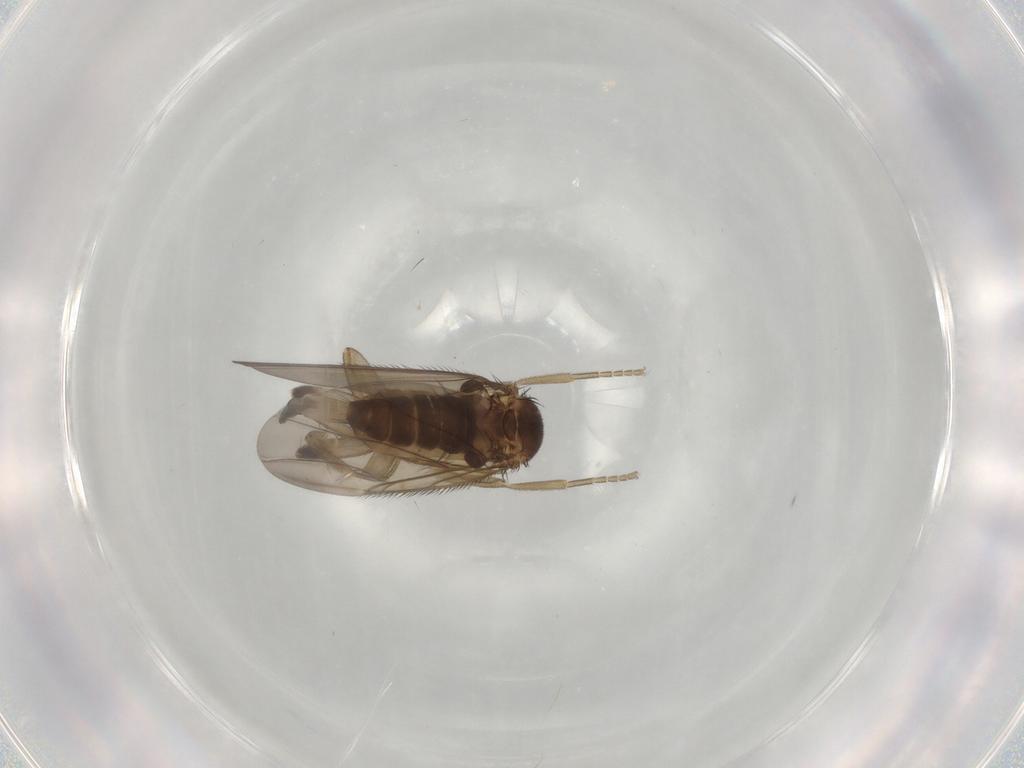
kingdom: Animalia
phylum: Arthropoda
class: Insecta
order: Diptera
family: Phoridae
